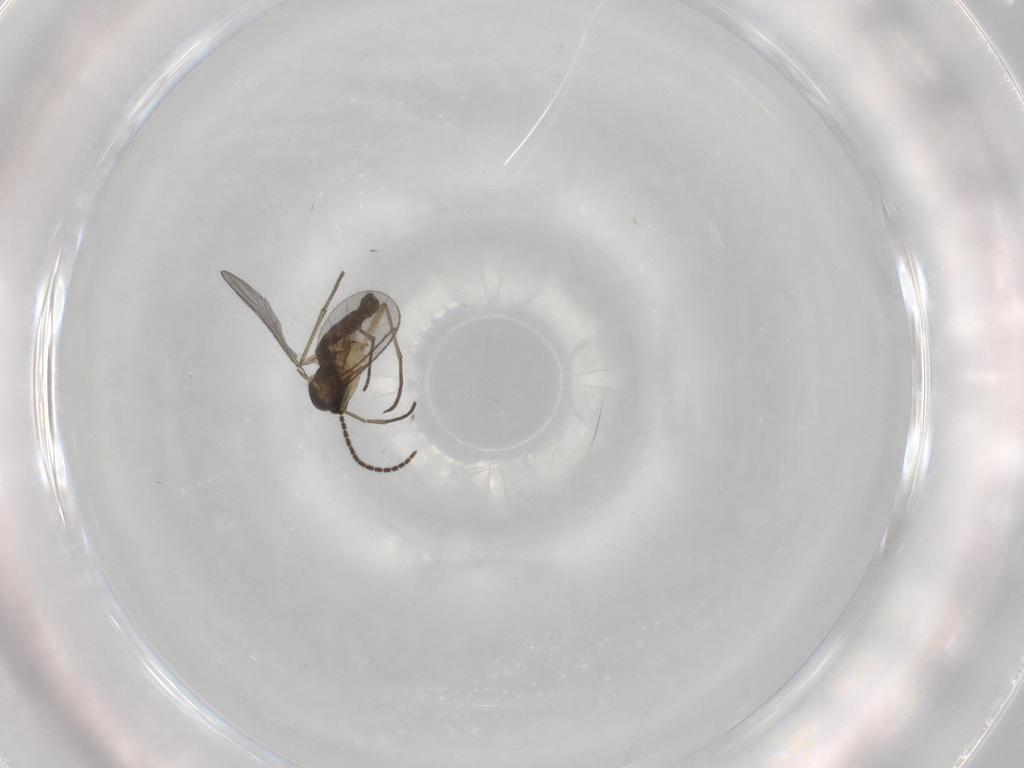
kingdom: Animalia
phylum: Arthropoda
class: Insecta
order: Diptera
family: Sciaridae
